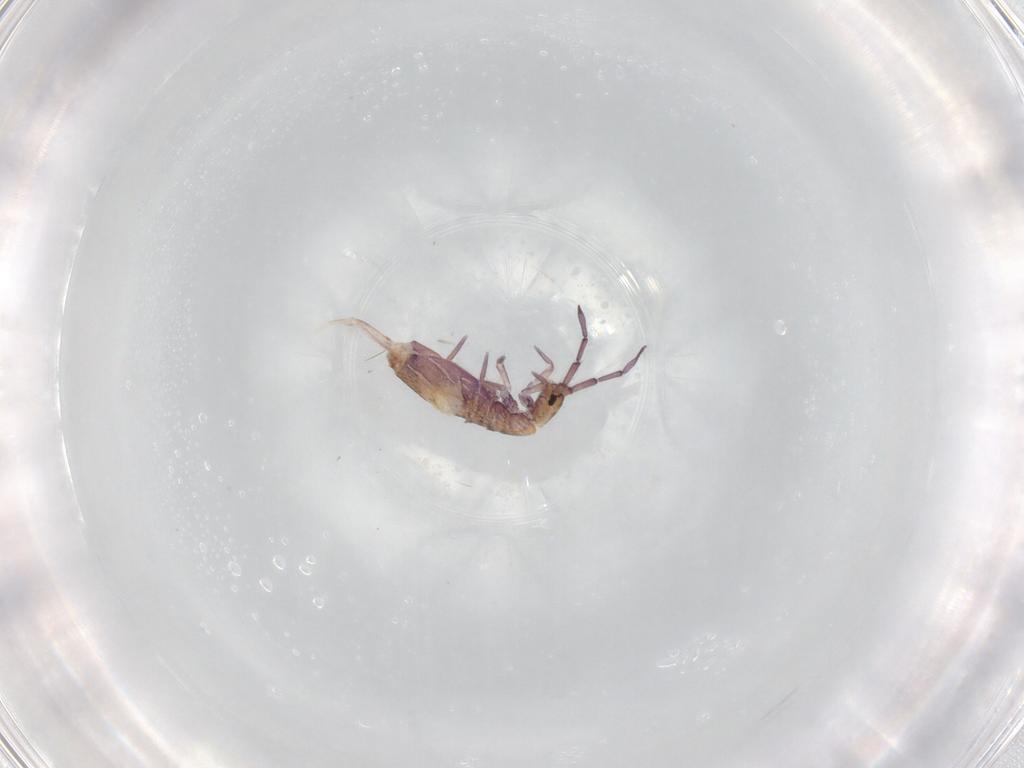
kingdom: Animalia
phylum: Arthropoda
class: Collembola
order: Entomobryomorpha
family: Entomobryidae
